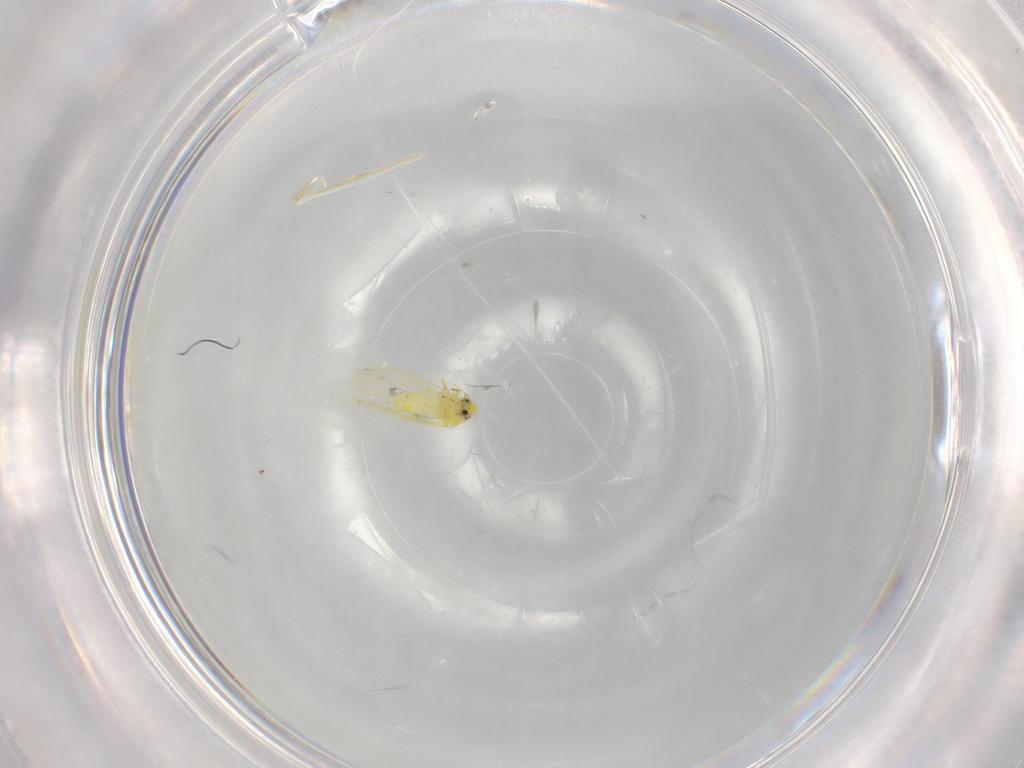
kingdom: Animalia
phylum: Arthropoda
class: Insecta
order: Hemiptera
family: Aleyrodidae
